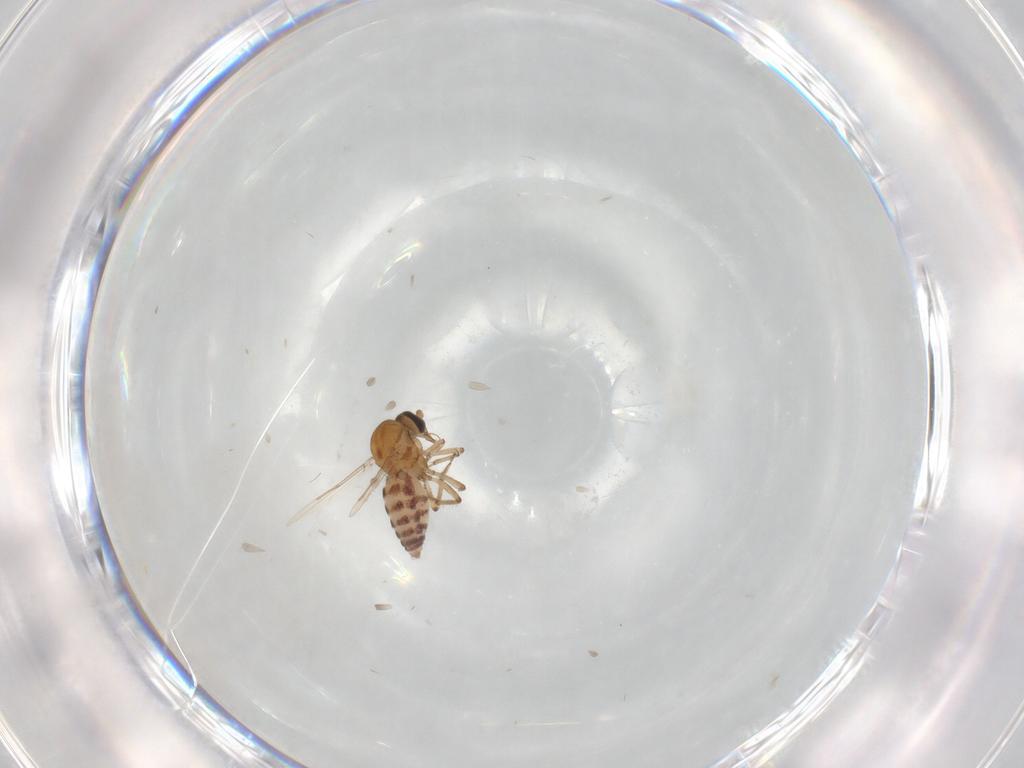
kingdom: Animalia
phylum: Arthropoda
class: Insecta
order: Diptera
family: Ceratopogonidae
